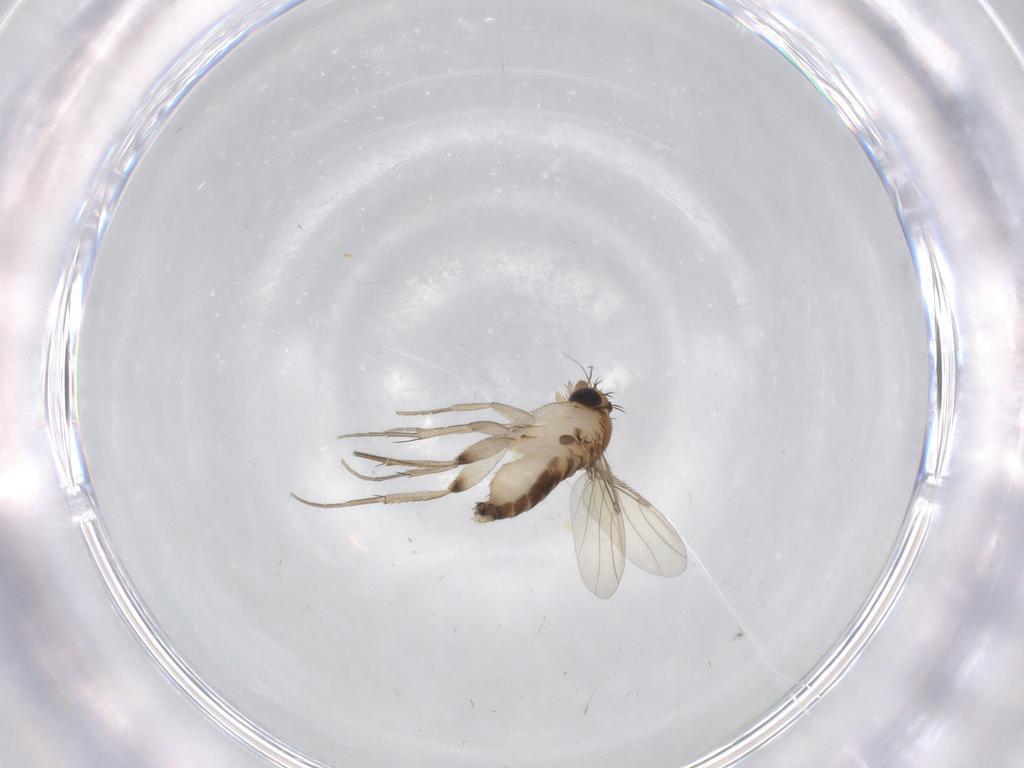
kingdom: Animalia
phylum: Arthropoda
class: Insecta
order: Diptera
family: Phoridae
